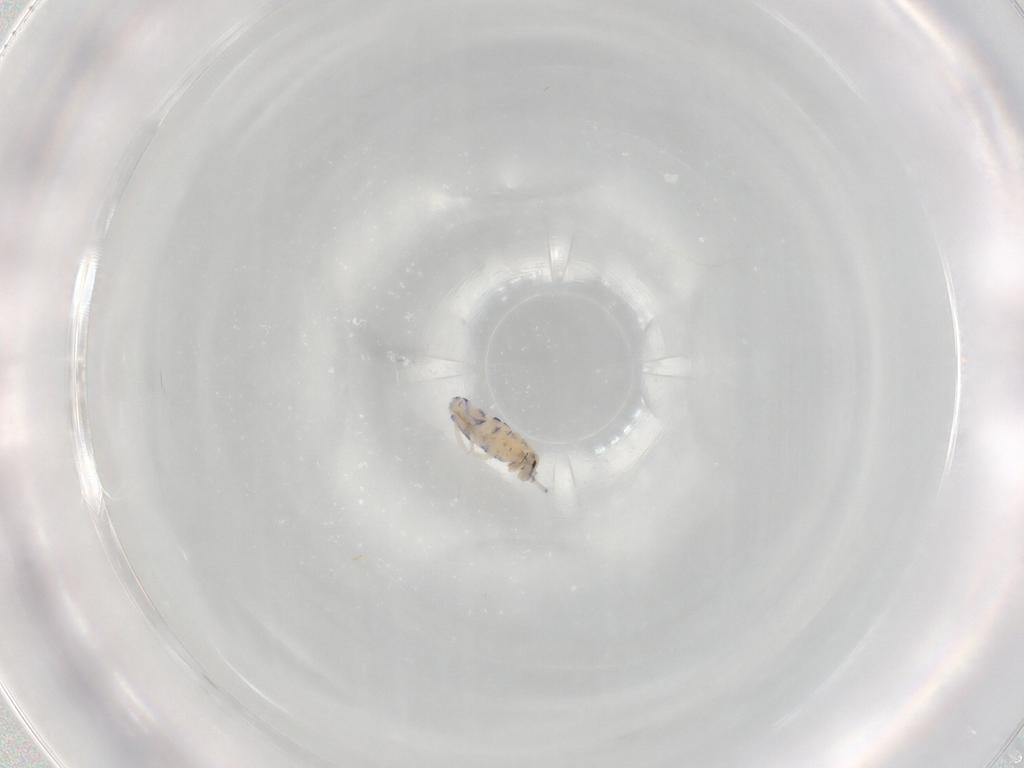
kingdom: Animalia
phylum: Arthropoda
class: Collembola
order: Entomobryomorpha
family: Entomobryidae
